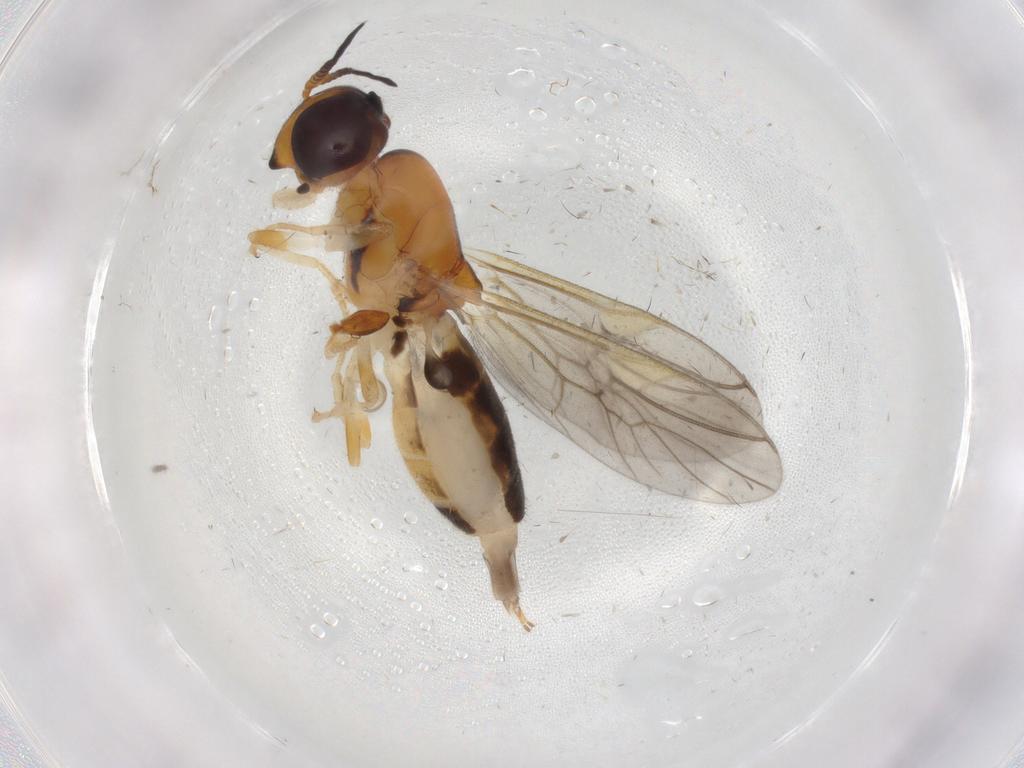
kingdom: Animalia
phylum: Arthropoda
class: Insecta
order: Diptera
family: Stratiomyidae
